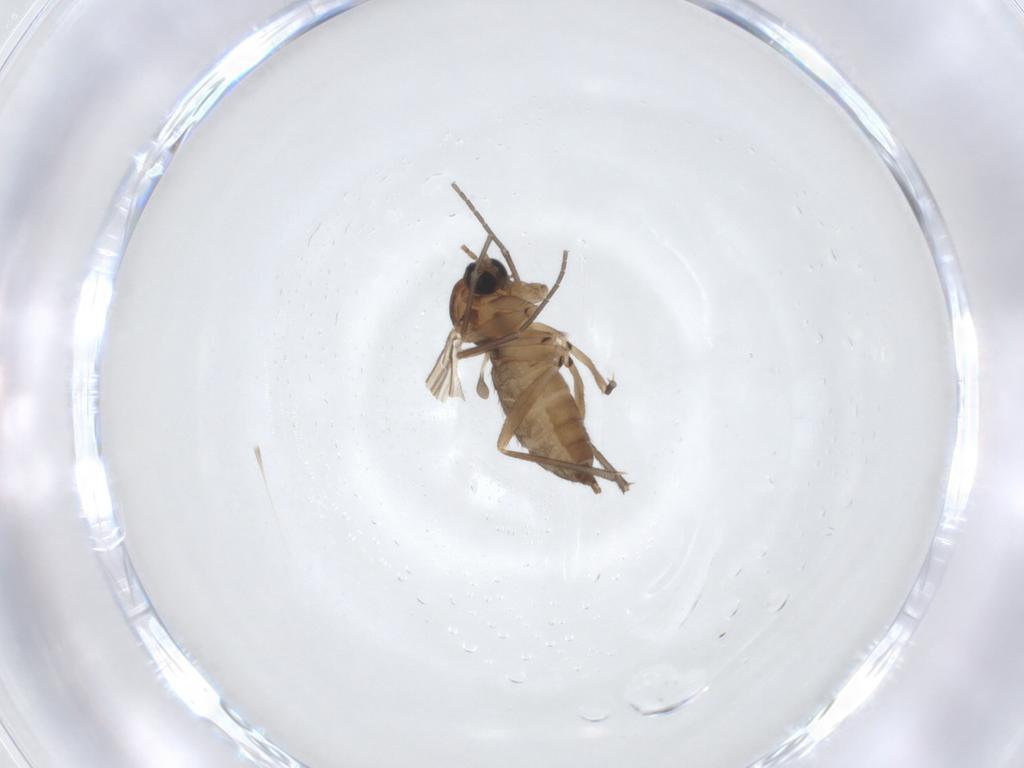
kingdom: Animalia
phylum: Arthropoda
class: Insecta
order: Diptera
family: Sciaridae
